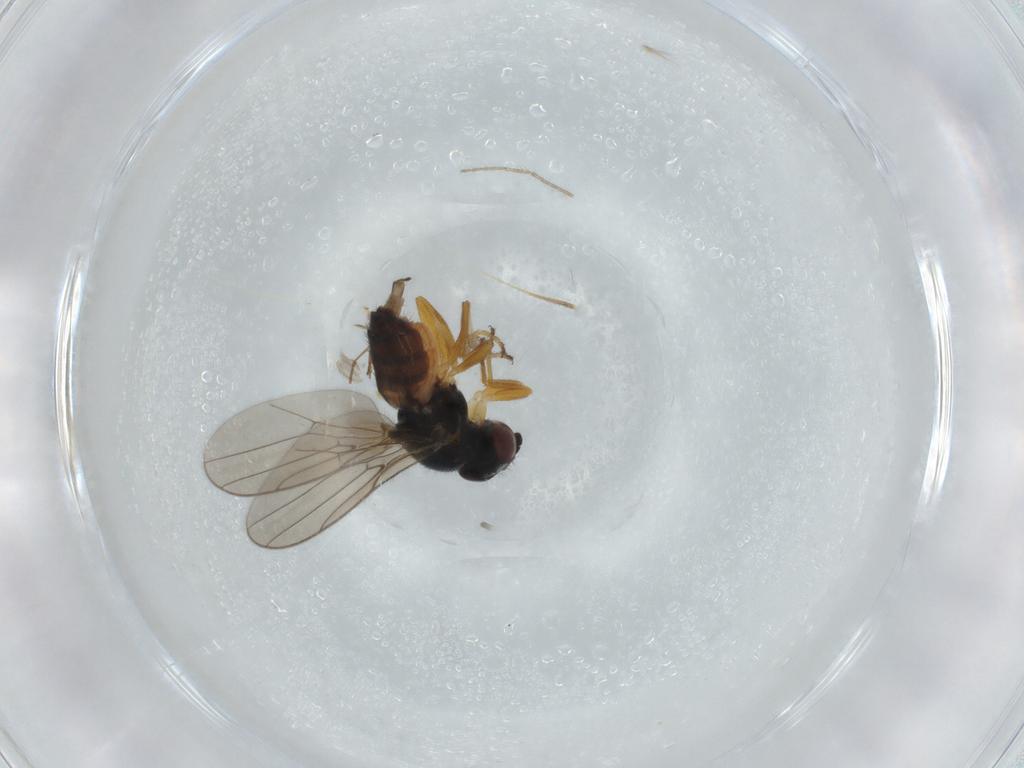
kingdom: Animalia
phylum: Arthropoda
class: Insecta
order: Diptera
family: Chloropidae
